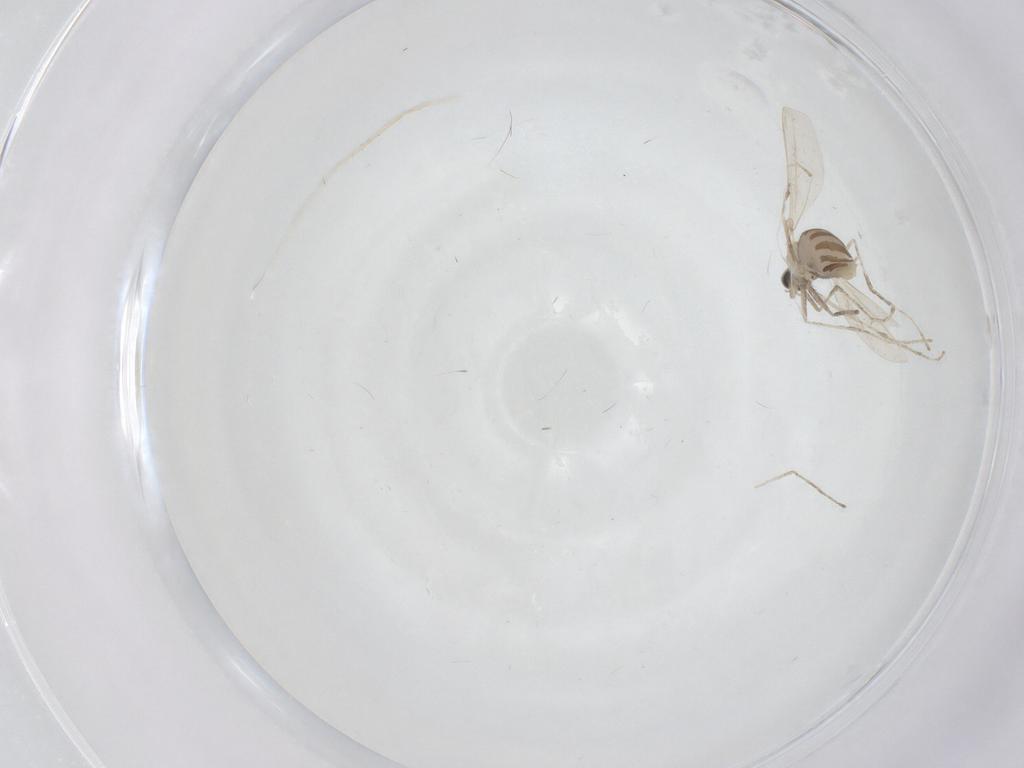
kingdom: Animalia
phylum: Arthropoda
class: Insecta
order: Diptera
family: Cecidomyiidae
